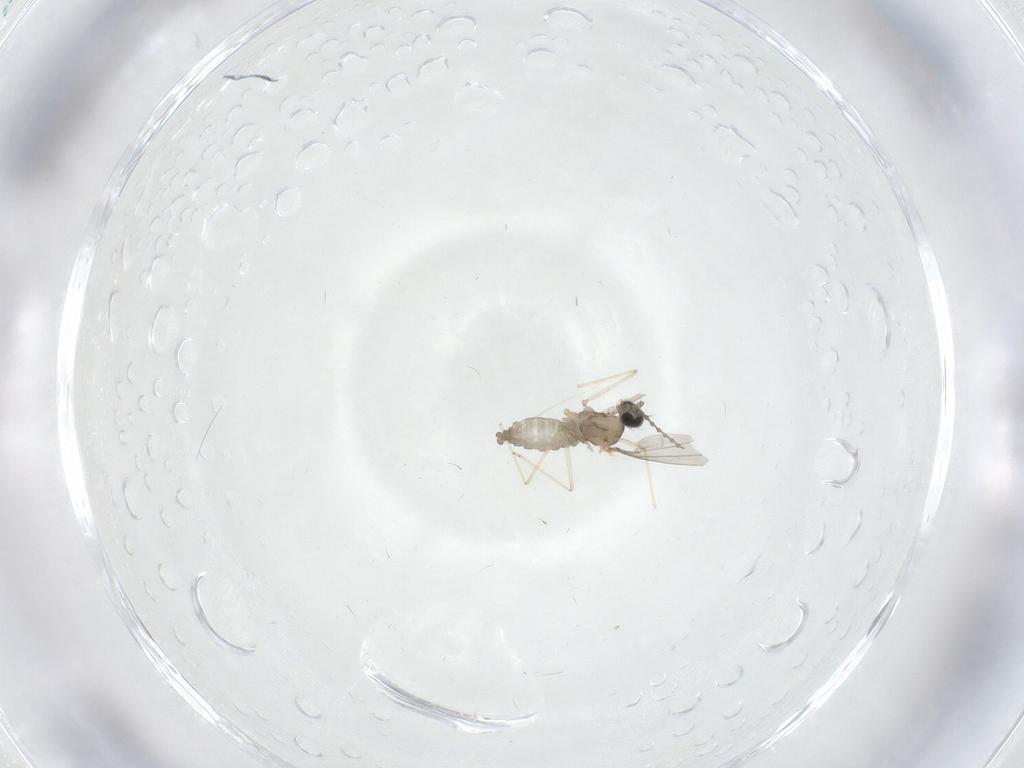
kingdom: Animalia
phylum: Arthropoda
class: Insecta
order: Diptera
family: Cecidomyiidae
